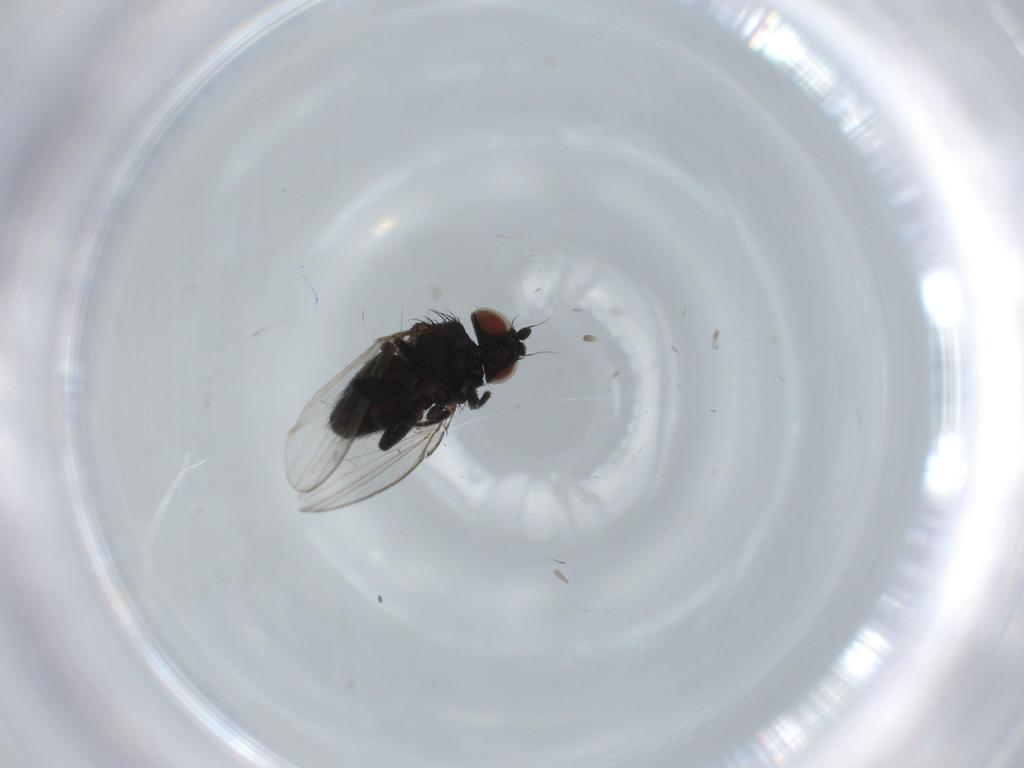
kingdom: Animalia
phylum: Arthropoda
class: Insecta
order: Diptera
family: Milichiidae
